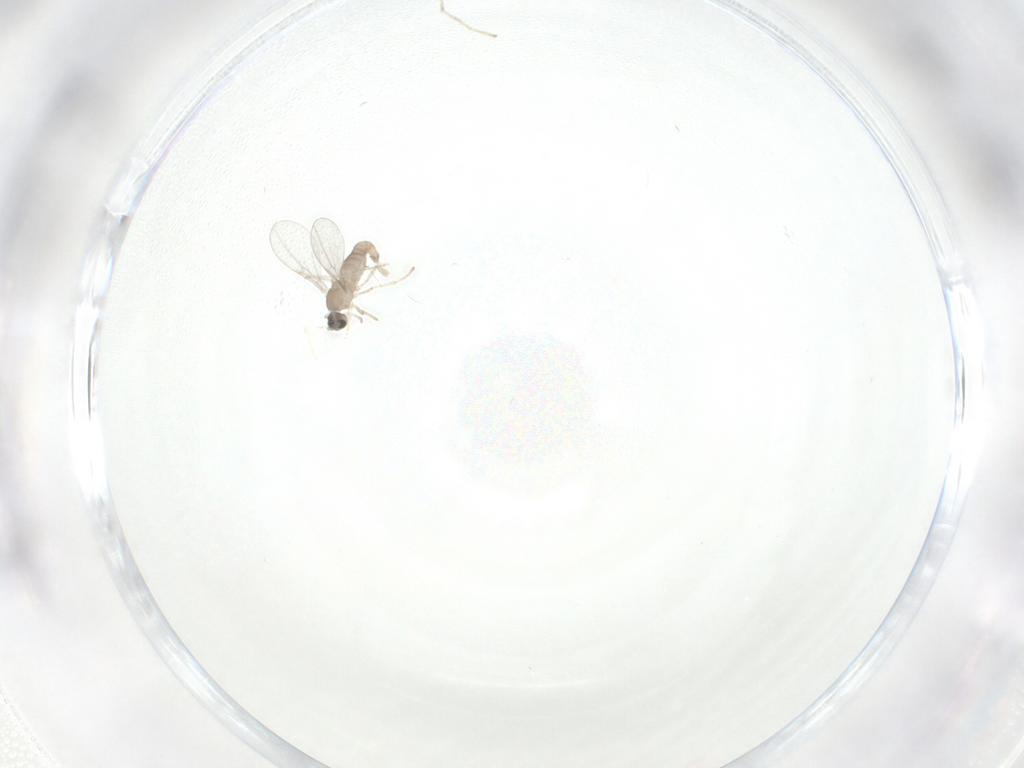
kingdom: Animalia
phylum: Arthropoda
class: Insecta
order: Diptera
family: Cecidomyiidae
